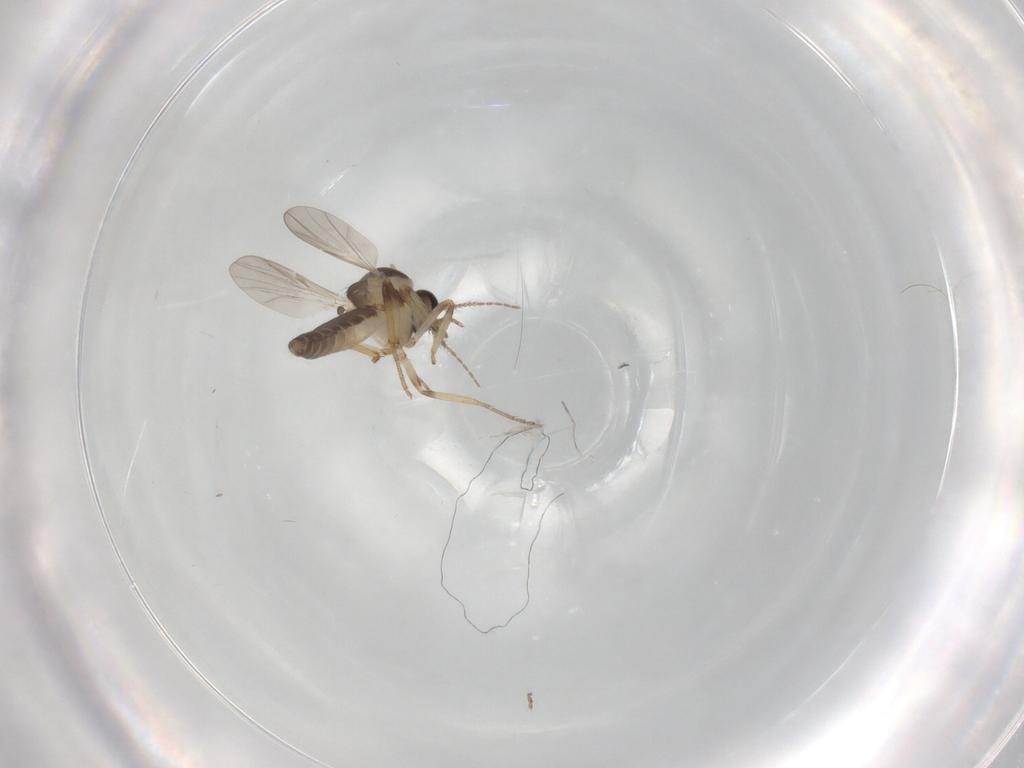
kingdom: Animalia
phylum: Arthropoda
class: Insecta
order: Diptera
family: Ceratopogonidae
